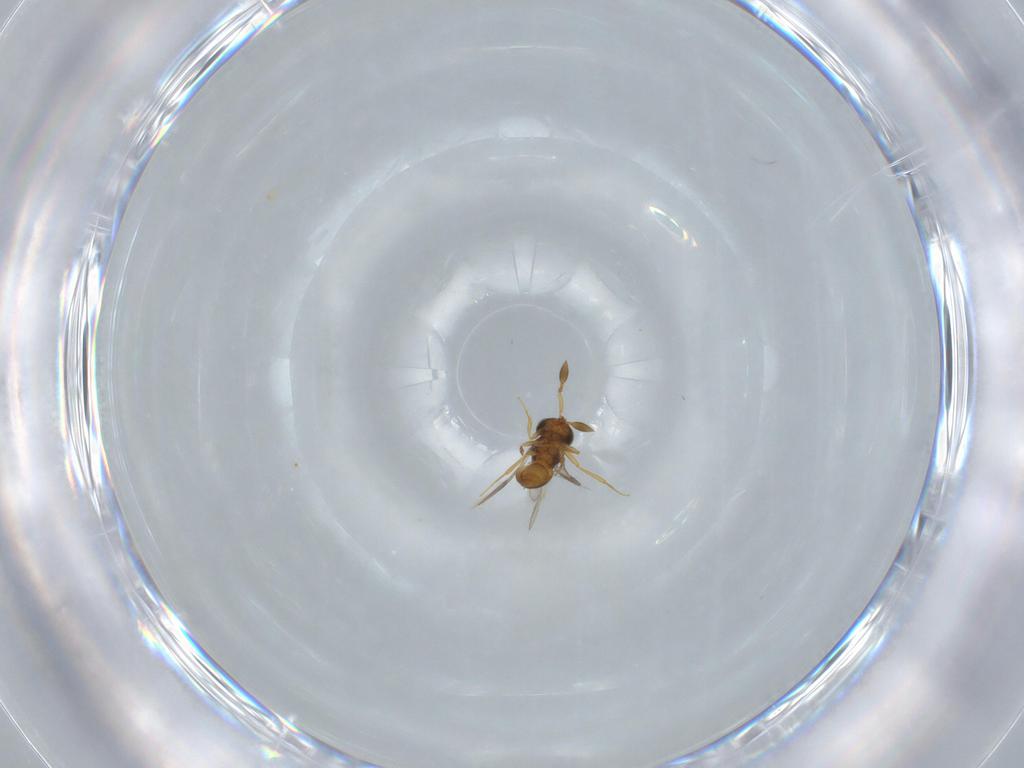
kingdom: Animalia
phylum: Arthropoda
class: Insecta
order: Hymenoptera
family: Scelionidae
